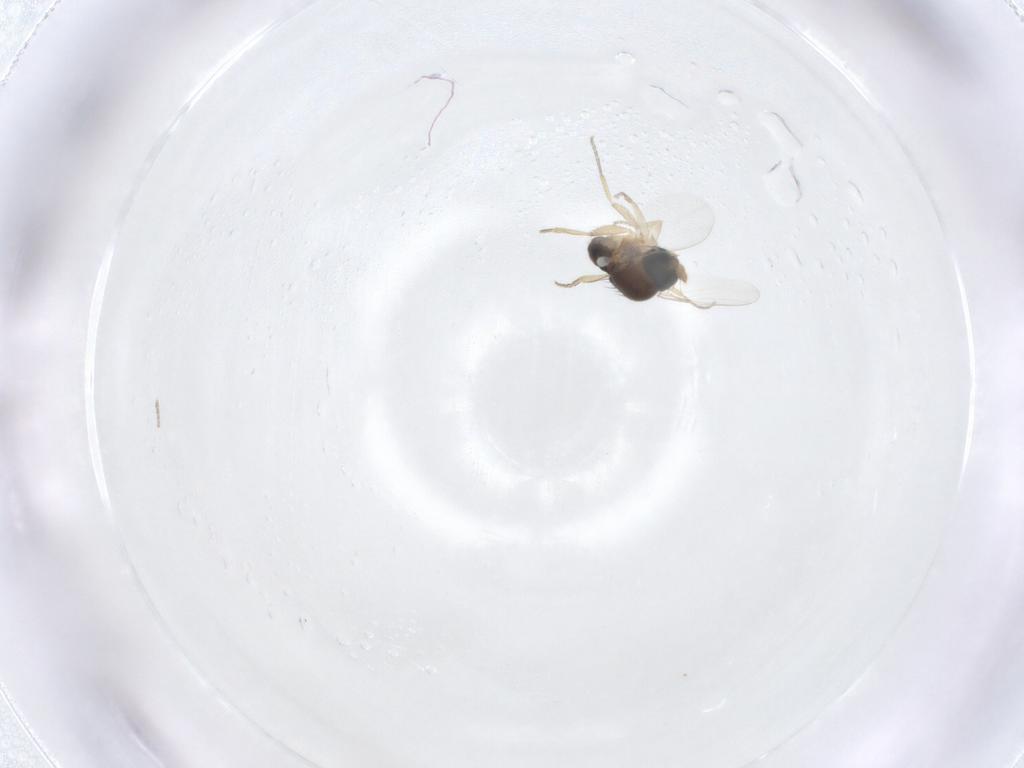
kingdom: Animalia
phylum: Arthropoda
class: Insecta
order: Diptera
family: Phoridae
